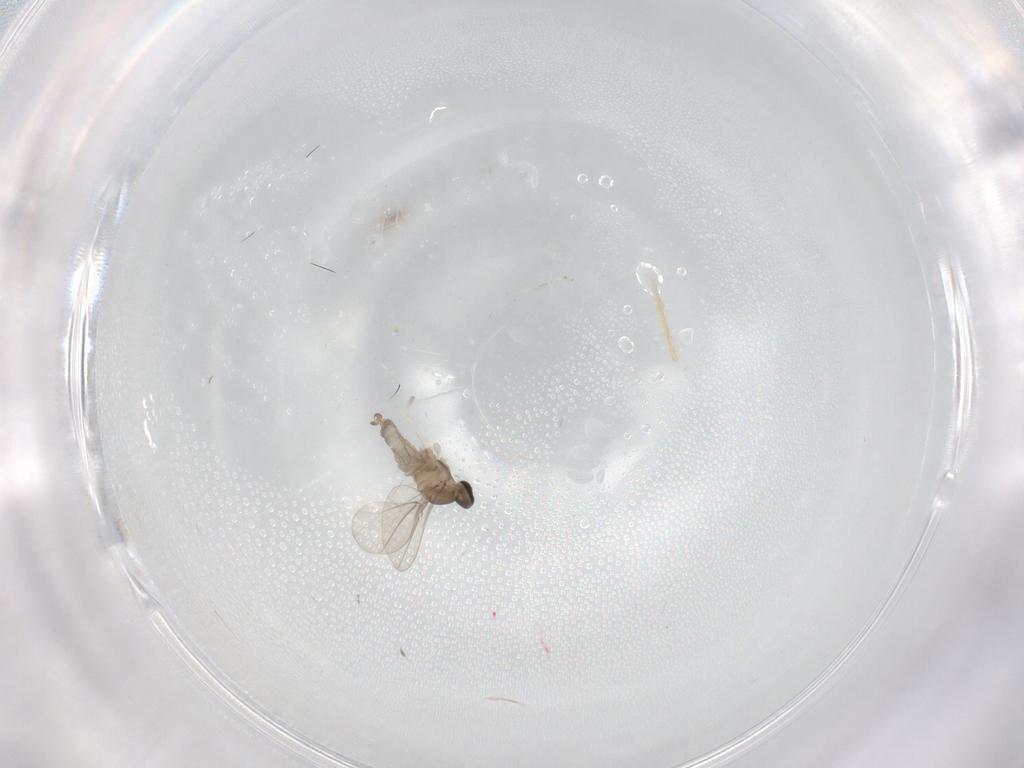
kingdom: Animalia
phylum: Arthropoda
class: Insecta
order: Diptera
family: Cecidomyiidae
